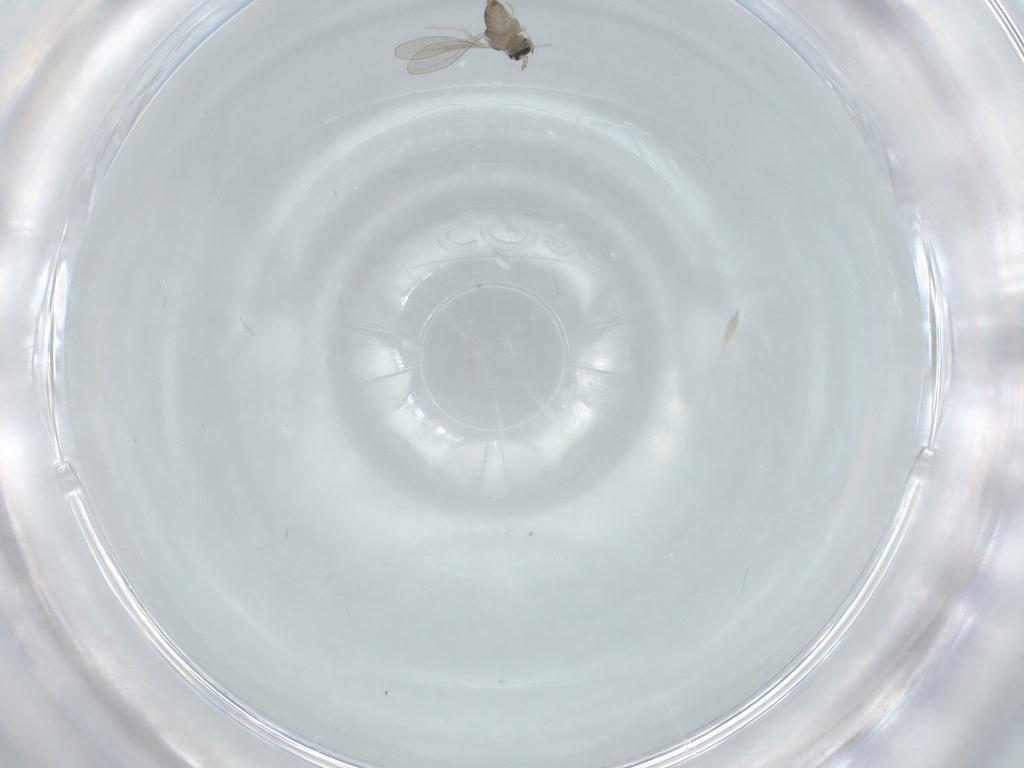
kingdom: Animalia
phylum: Arthropoda
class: Insecta
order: Diptera
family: Cecidomyiidae
